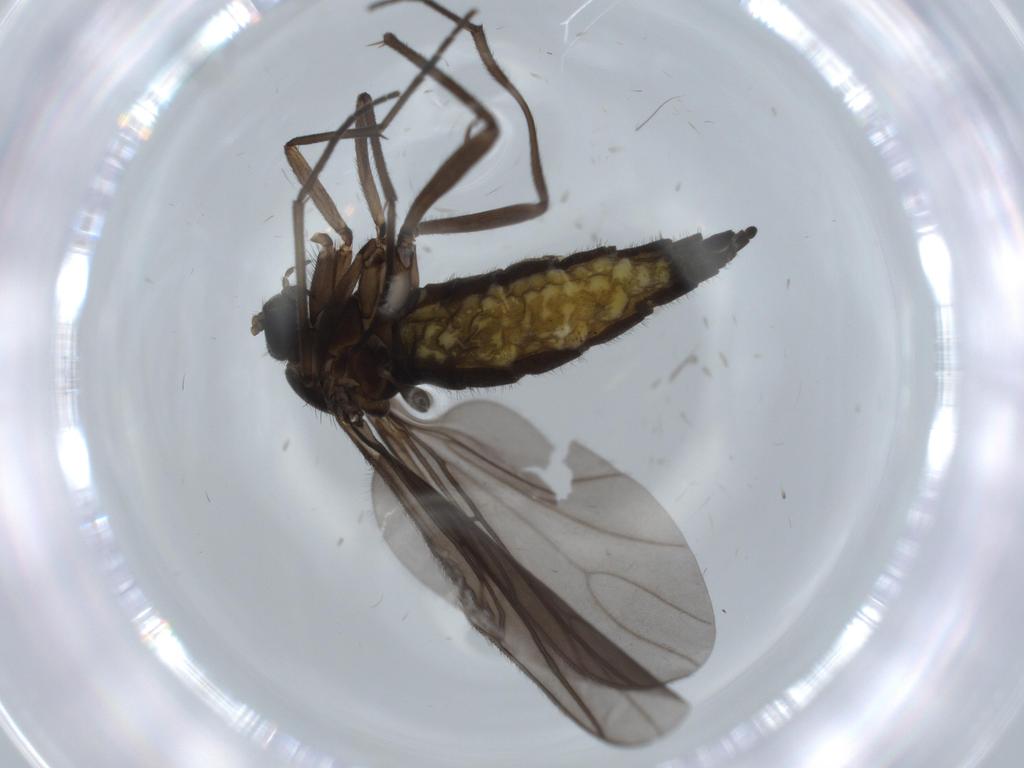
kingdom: Animalia
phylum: Arthropoda
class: Insecta
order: Diptera
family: Sciaridae
